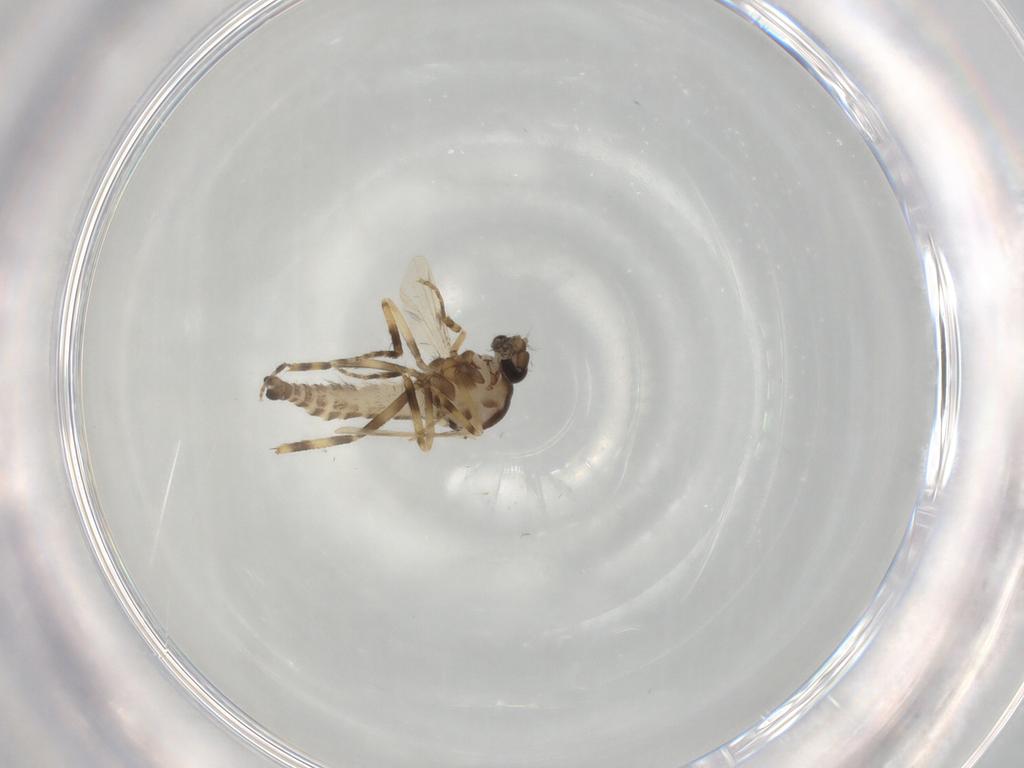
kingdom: Animalia
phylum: Arthropoda
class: Insecta
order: Diptera
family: Ceratopogonidae
